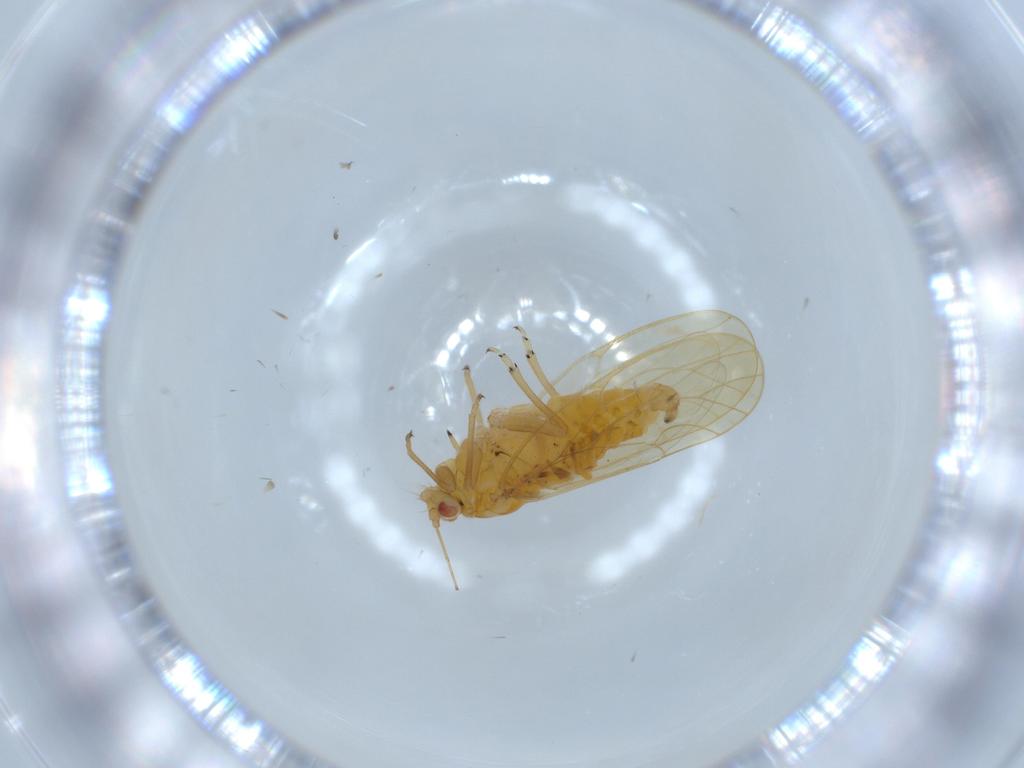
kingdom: Animalia
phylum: Arthropoda
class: Insecta
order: Hemiptera
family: Psyllidae
